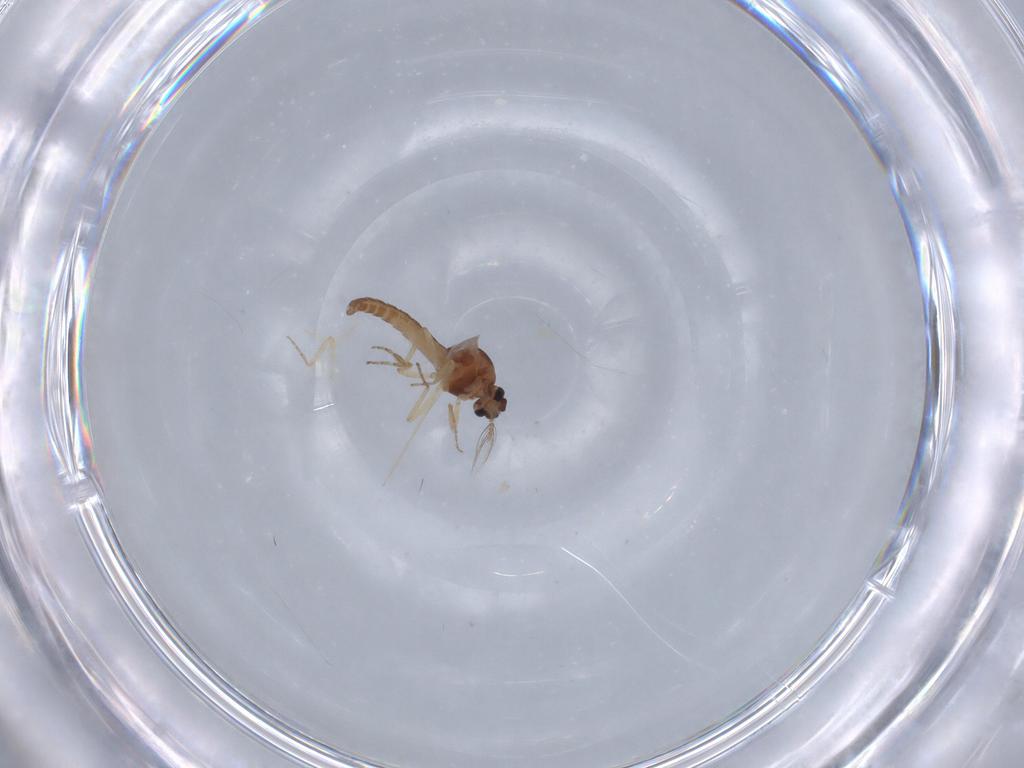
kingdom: Animalia
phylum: Arthropoda
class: Insecta
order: Diptera
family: Ceratopogonidae
